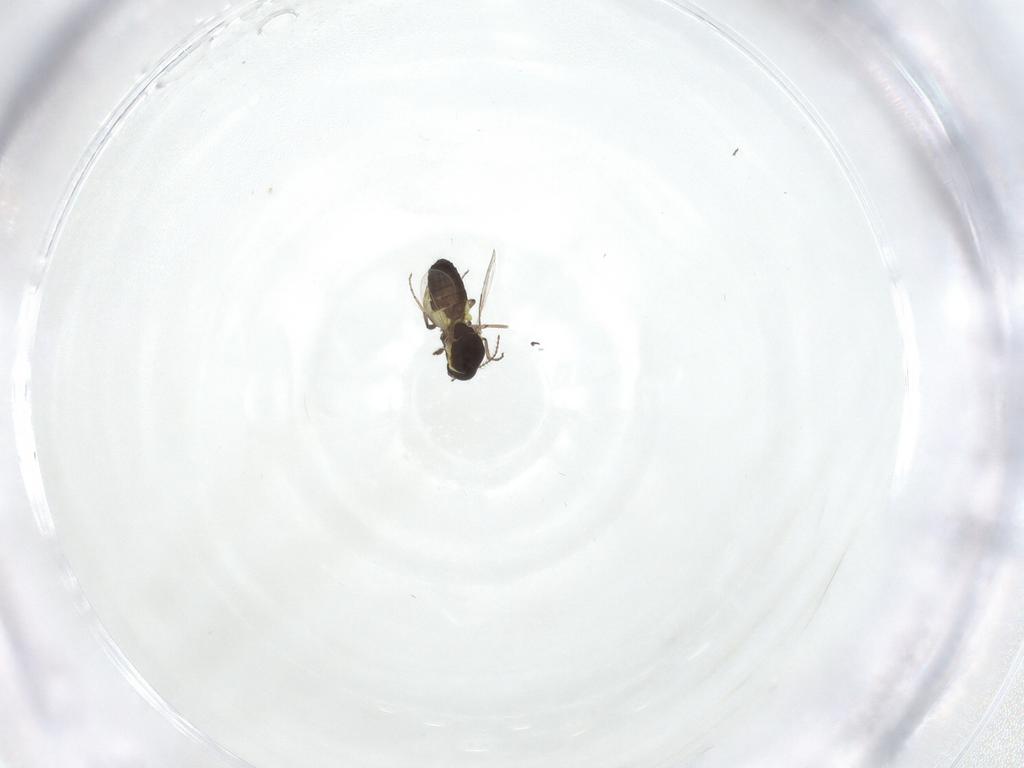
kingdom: Animalia
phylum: Arthropoda
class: Insecta
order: Diptera
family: Ceratopogonidae
